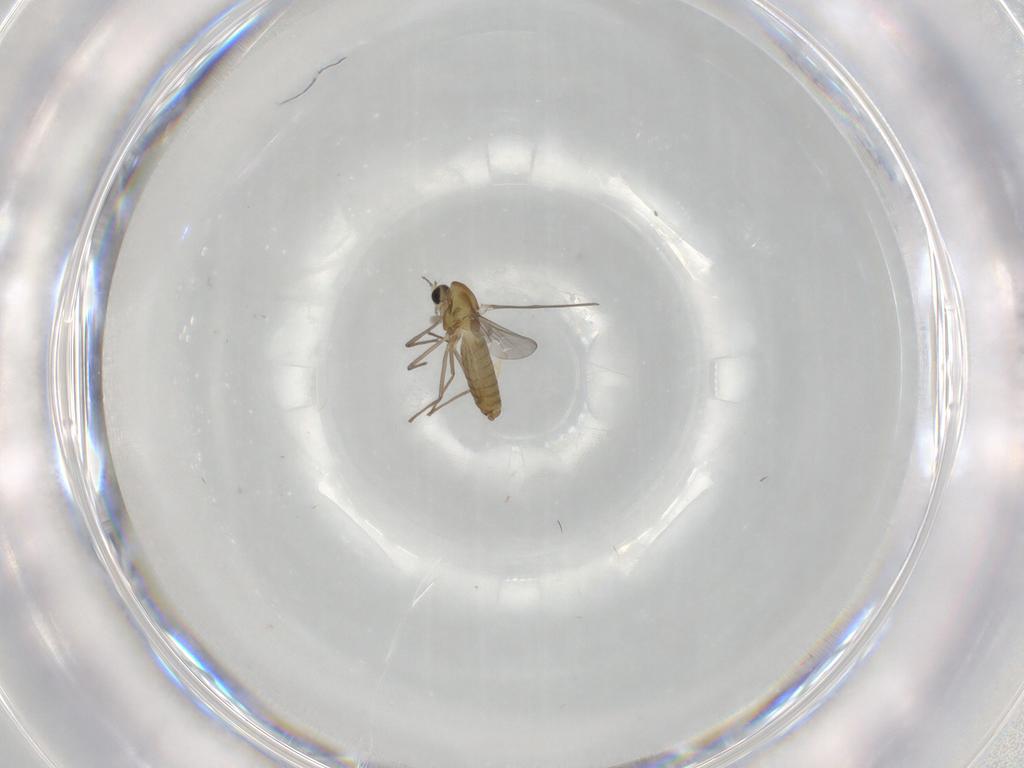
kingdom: Animalia
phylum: Arthropoda
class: Insecta
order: Diptera
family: Chironomidae
